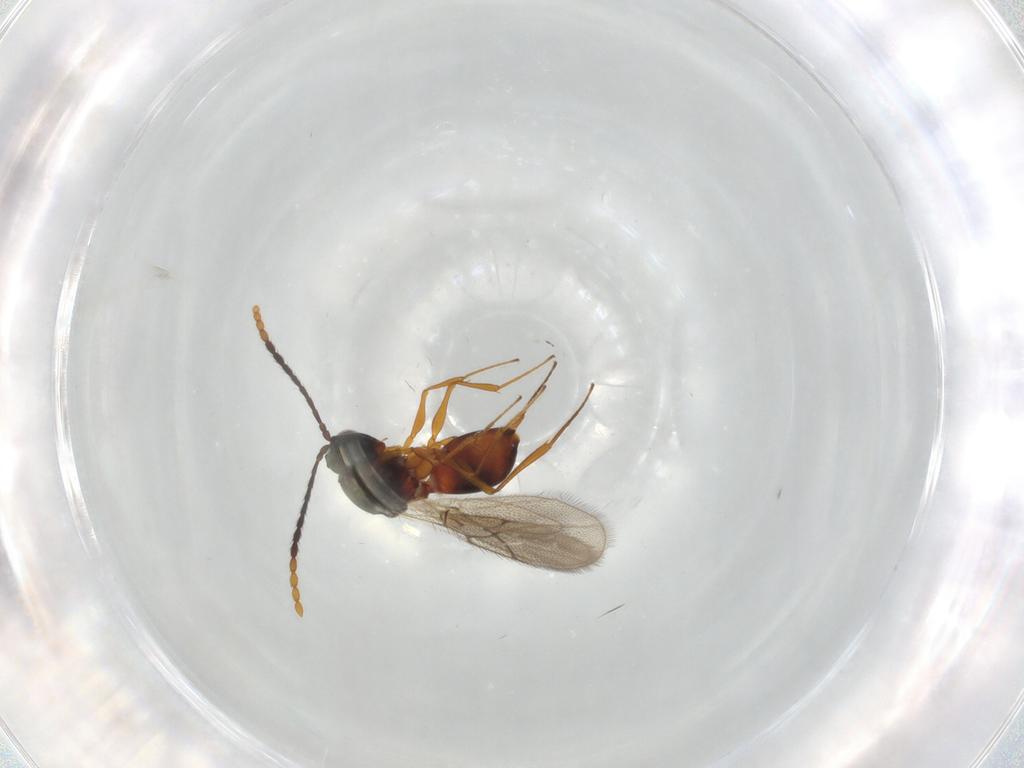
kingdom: Animalia
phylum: Arthropoda
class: Insecta
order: Hymenoptera
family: Figitidae
